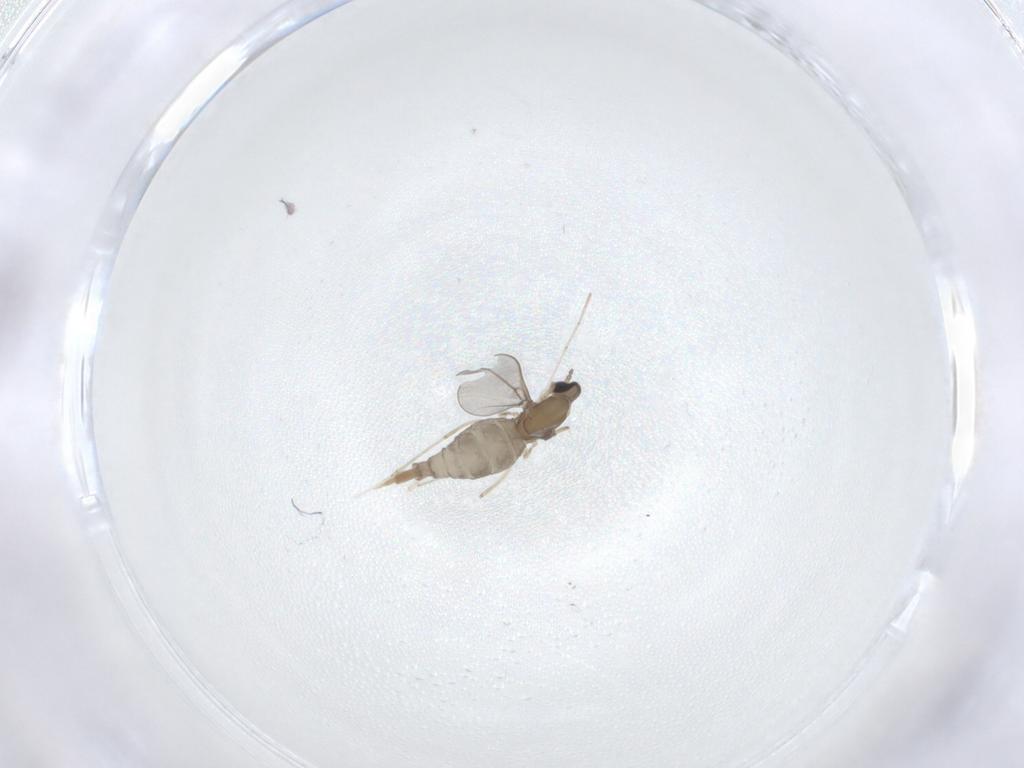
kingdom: Animalia
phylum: Arthropoda
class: Insecta
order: Diptera
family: Cecidomyiidae
